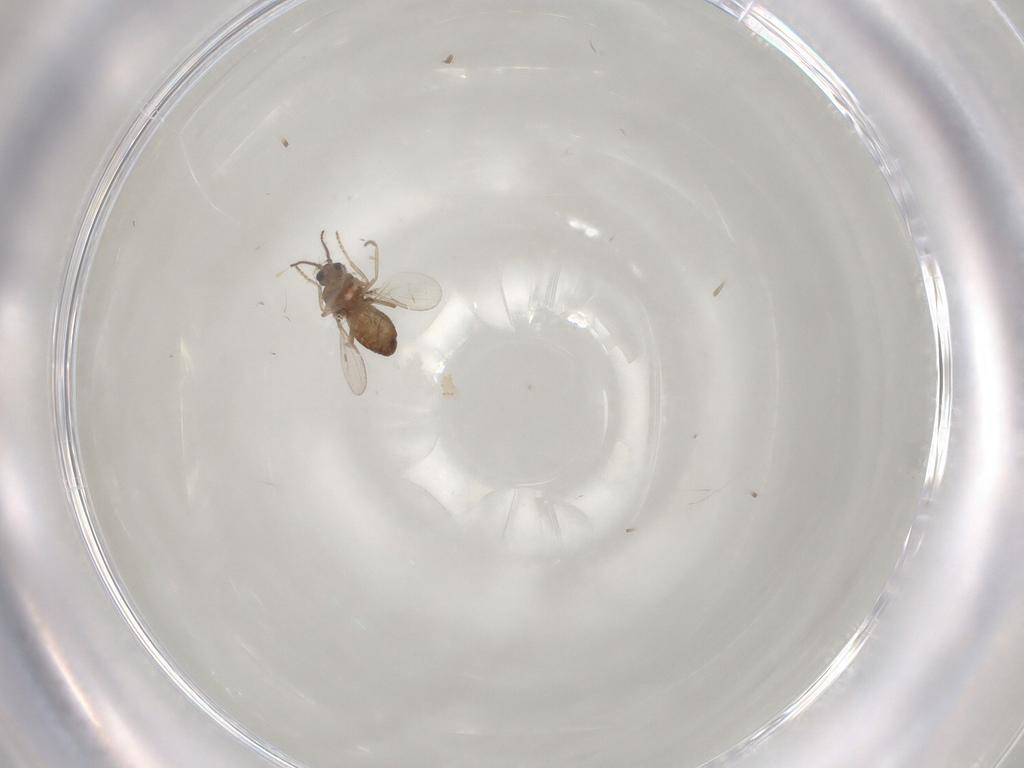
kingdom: Animalia
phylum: Arthropoda
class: Insecta
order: Diptera
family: Ceratopogonidae
